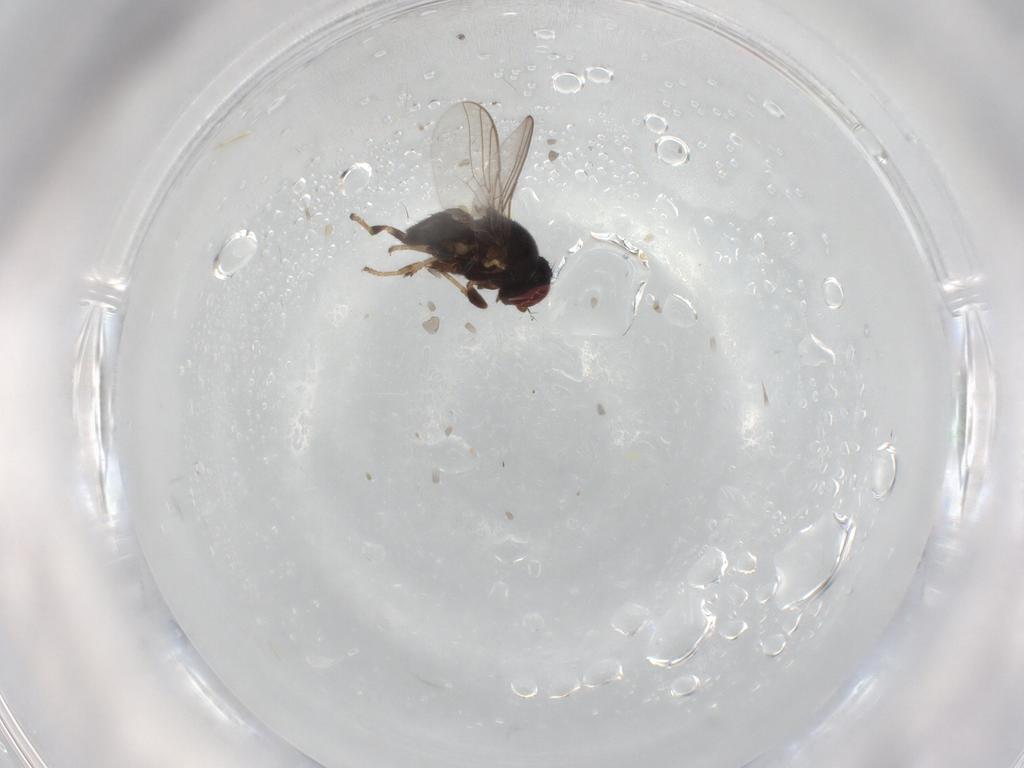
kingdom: Animalia
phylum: Arthropoda
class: Insecta
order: Diptera
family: Chloropidae
